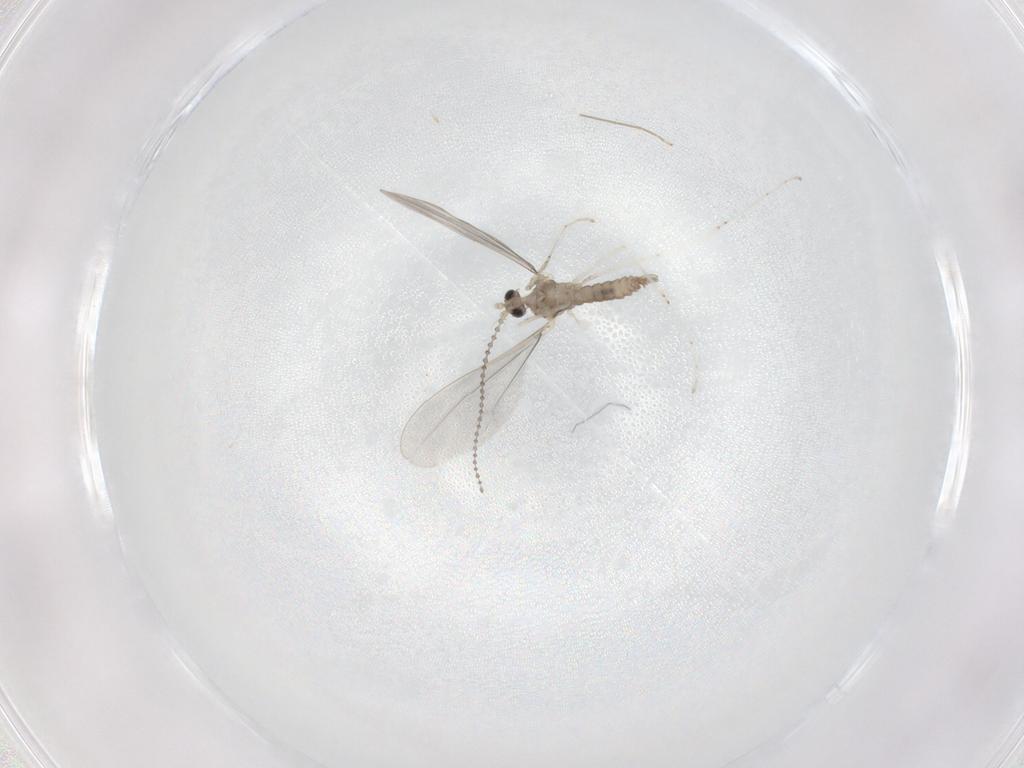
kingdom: Animalia
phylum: Arthropoda
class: Insecta
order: Diptera
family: Cecidomyiidae
